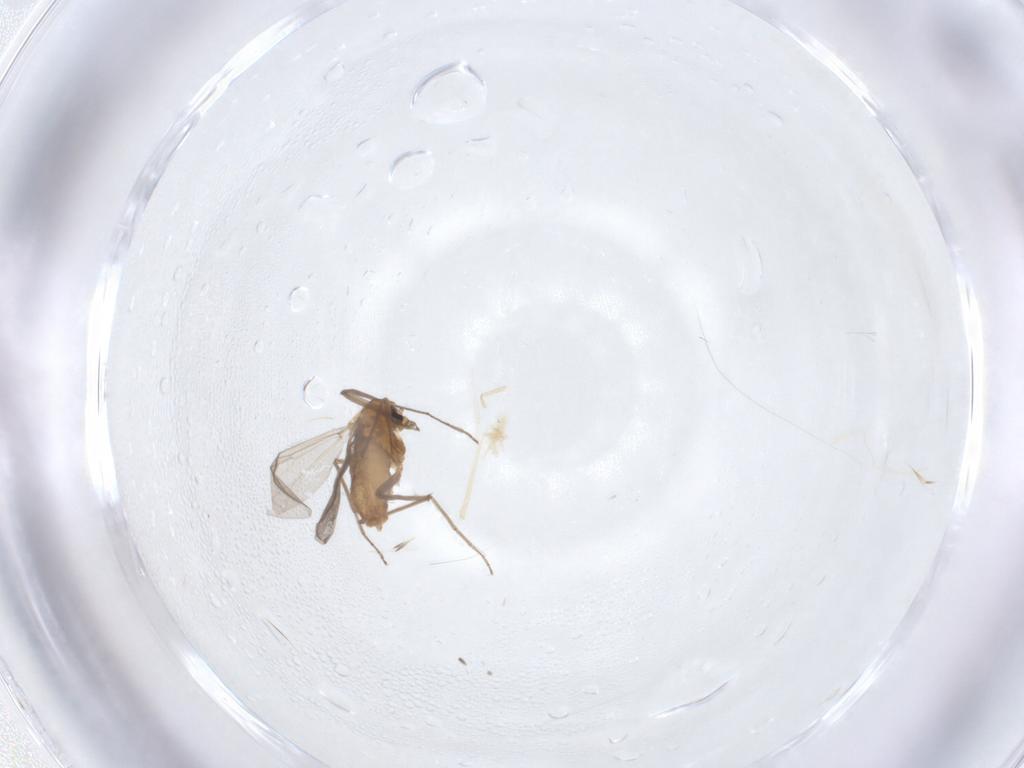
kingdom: Animalia
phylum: Arthropoda
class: Insecta
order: Diptera
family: Chironomidae
